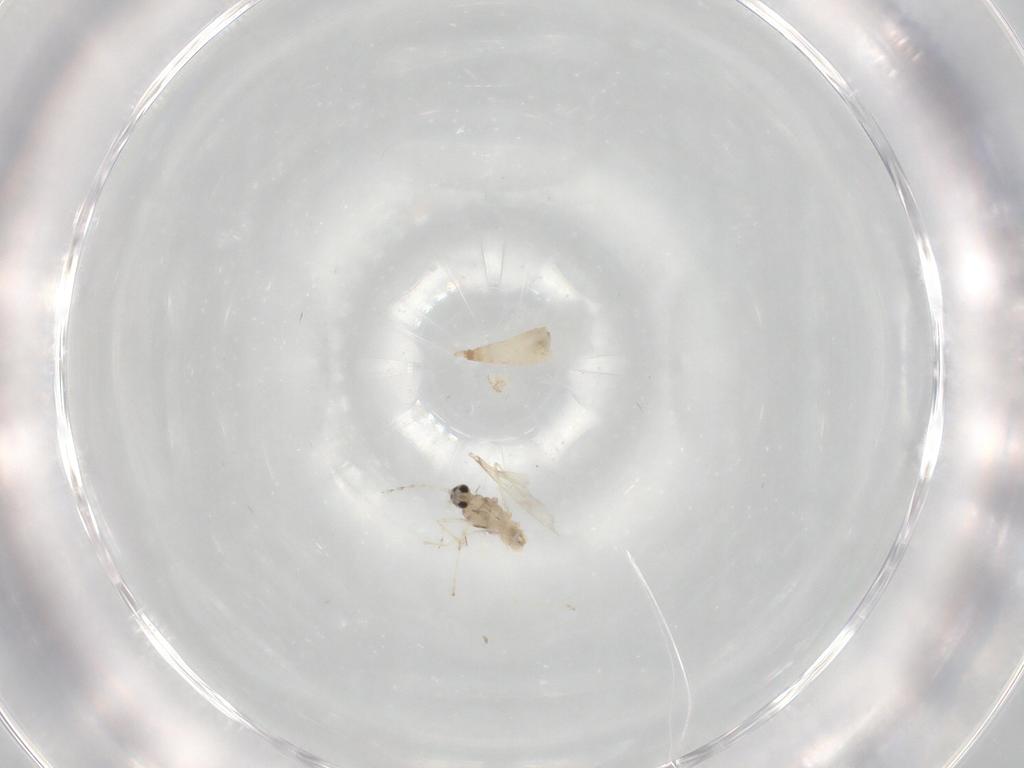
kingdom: Animalia
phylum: Arthropoda
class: Insecta
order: Diptera
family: Cecidomyiidae
